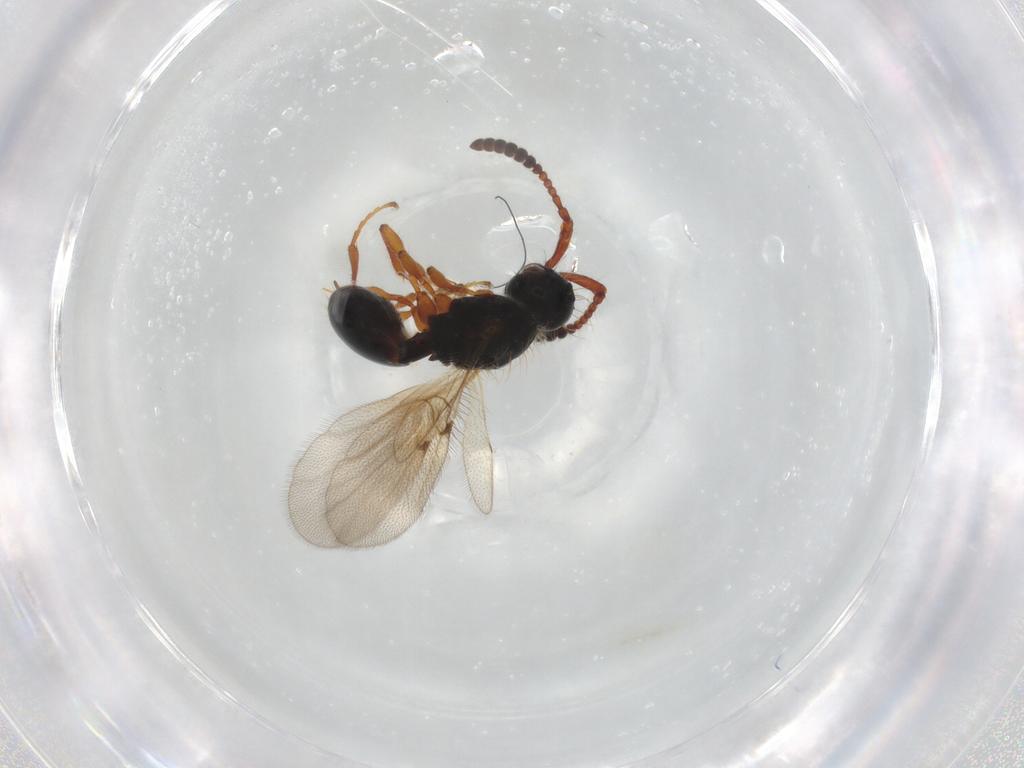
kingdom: Animalia
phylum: Arthropoda
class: Insecta
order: Hymenoptera
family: Diapriidae
